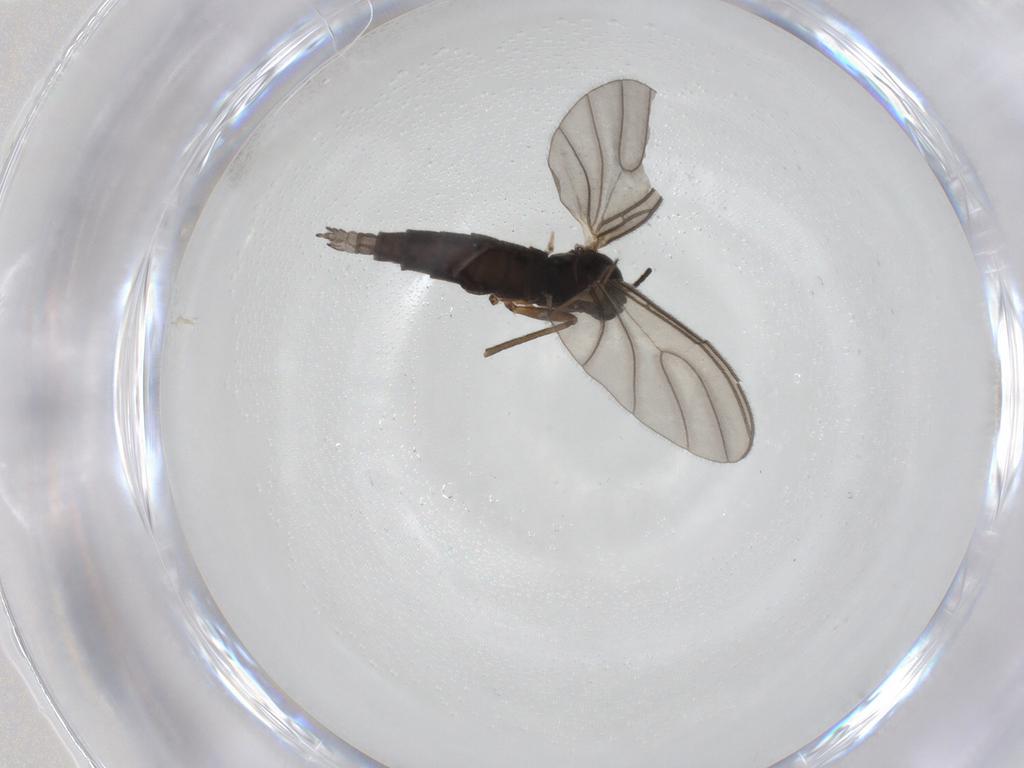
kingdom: Animalia
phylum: Arthropoda
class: Insecta
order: Diptera
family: Sciaridae
